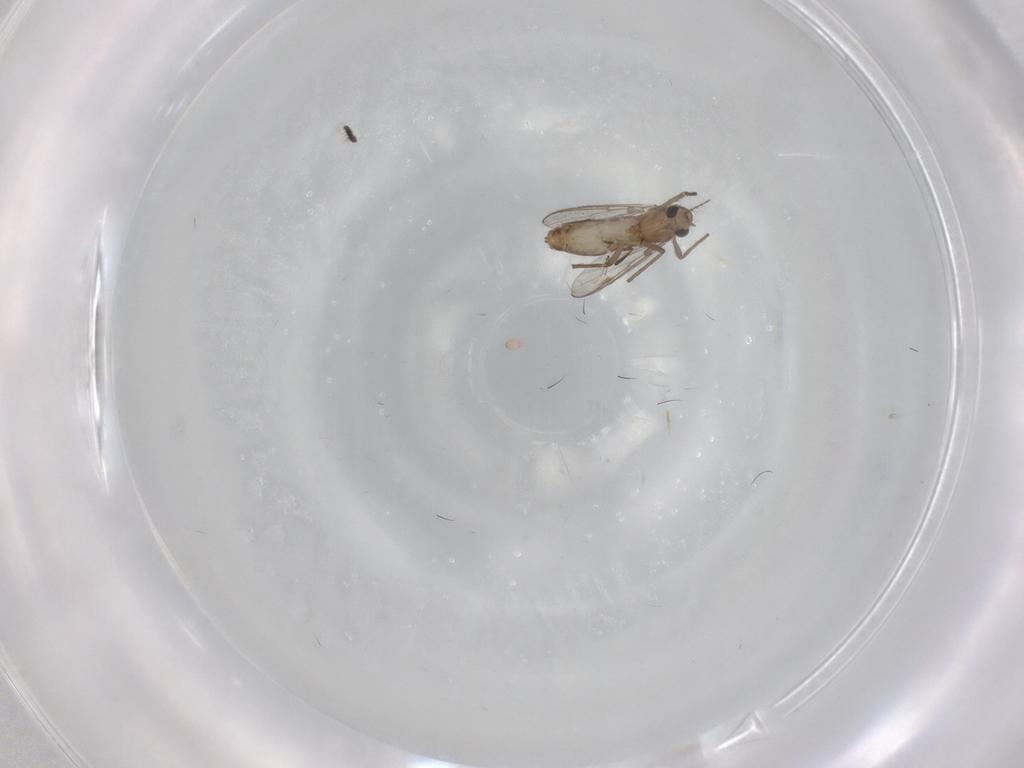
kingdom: Animalia
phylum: Arthropoda
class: Insecta
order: Diptera
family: Chironomidae
